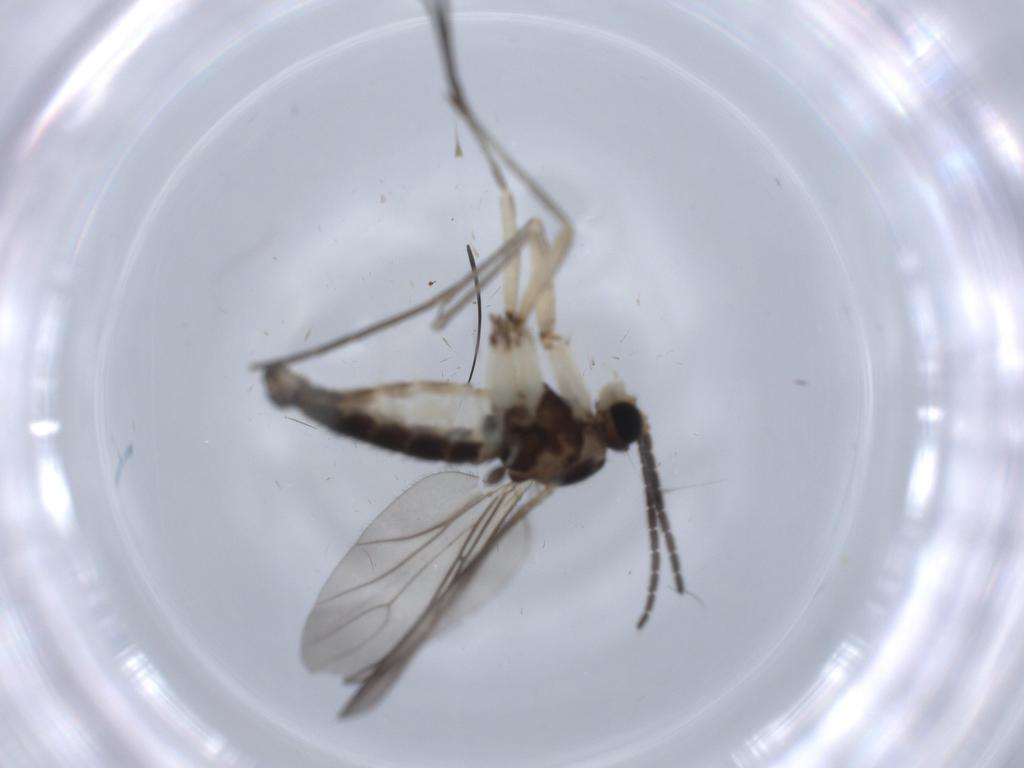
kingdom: Animalia
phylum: Arthropoda
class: Insecta
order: Diptera
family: Sciaridae
